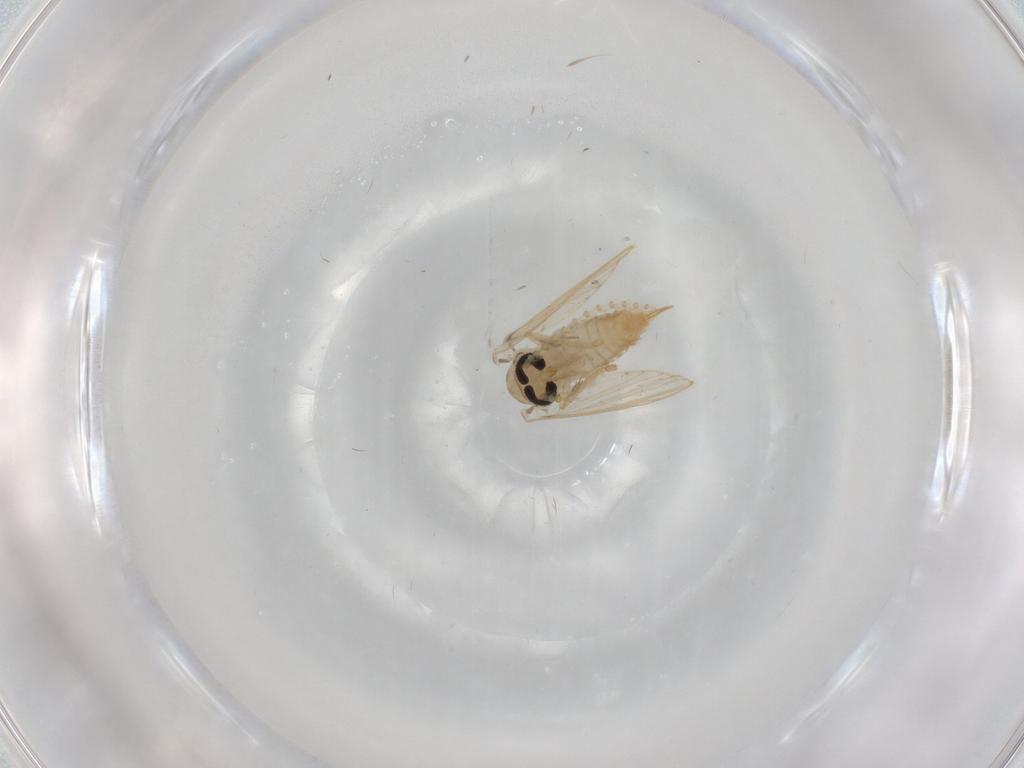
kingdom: Animalia
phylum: Arthropoda
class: Insecta
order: Diptera
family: Psychodidae
